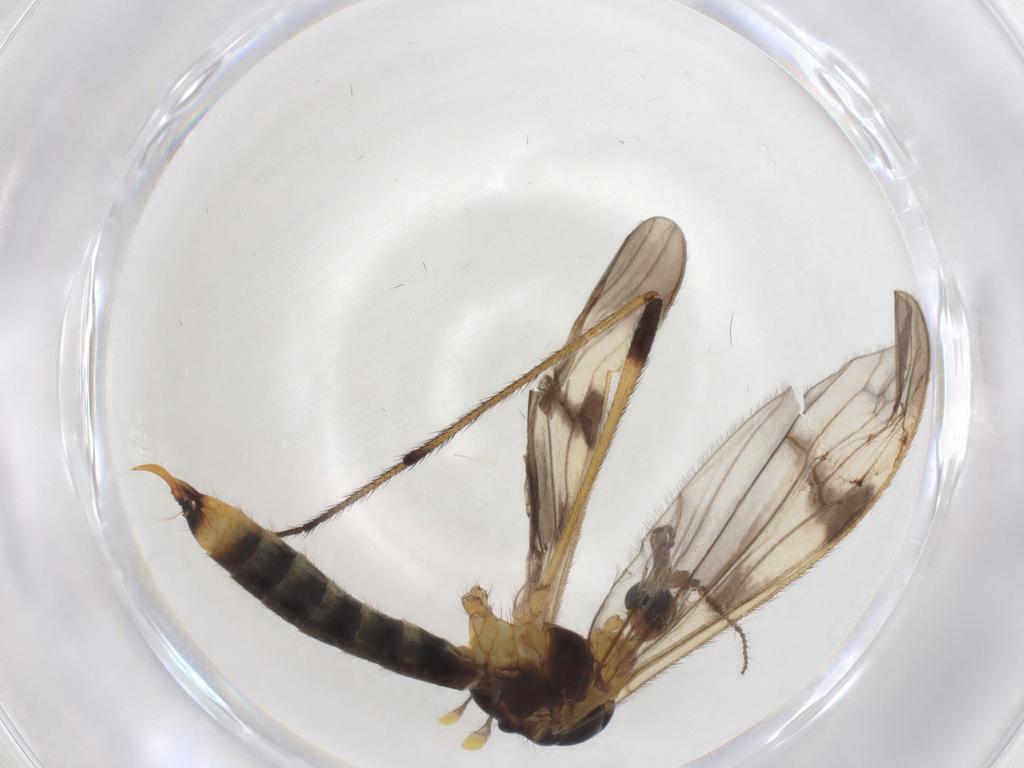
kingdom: Animalia
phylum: Arthropoda
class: Insecta
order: Diptera
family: Limoniidae
